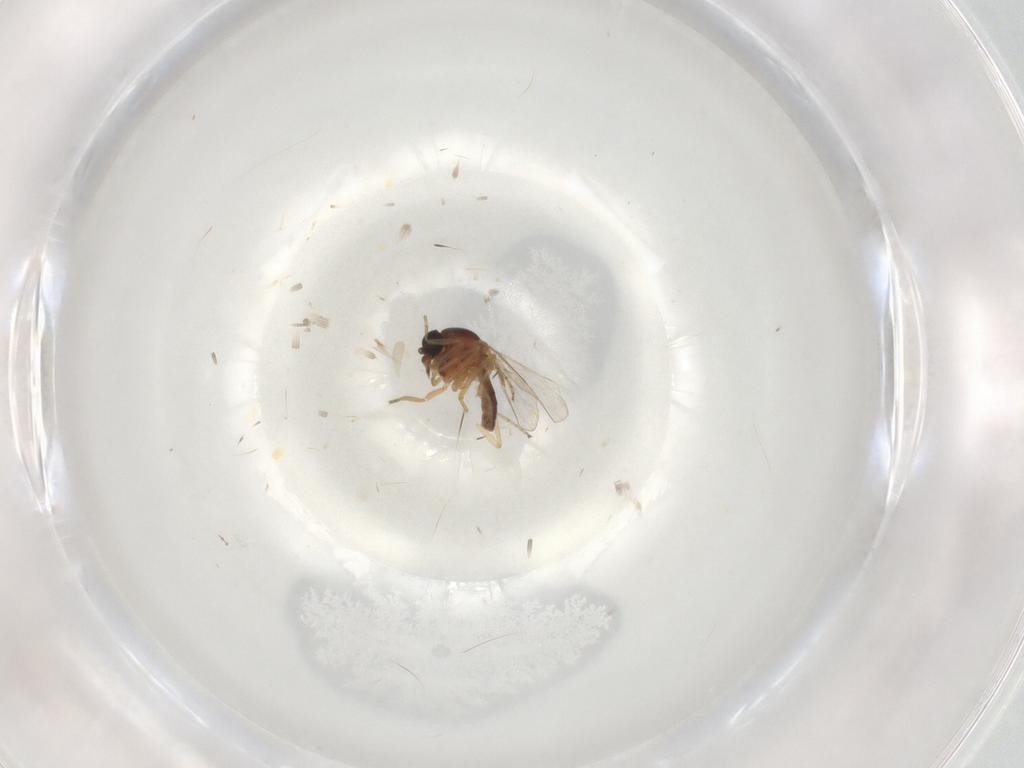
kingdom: Animalia
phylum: Arthropoda
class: Insecta
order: Diptera
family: Ceratopogonidae
